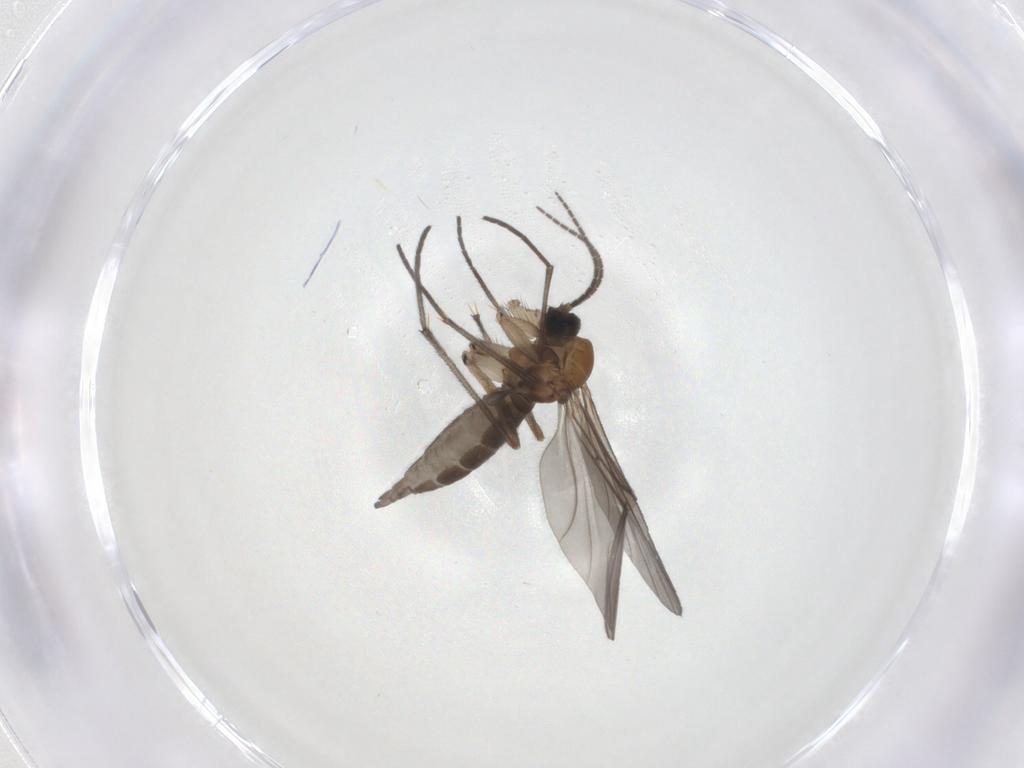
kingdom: Animalia
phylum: Arthropoda
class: Insecta
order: Diptera
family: Sciaridae
